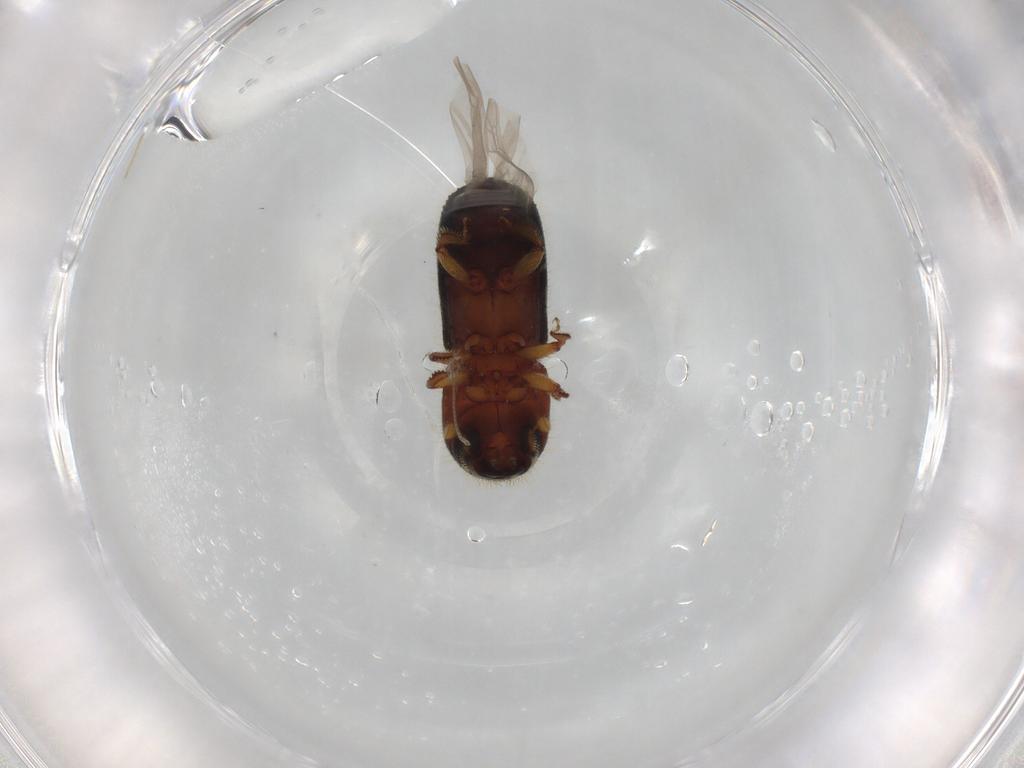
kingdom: Animalia
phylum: Arthropoda
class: Insecta
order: Coleoptera
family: Curculionidae
